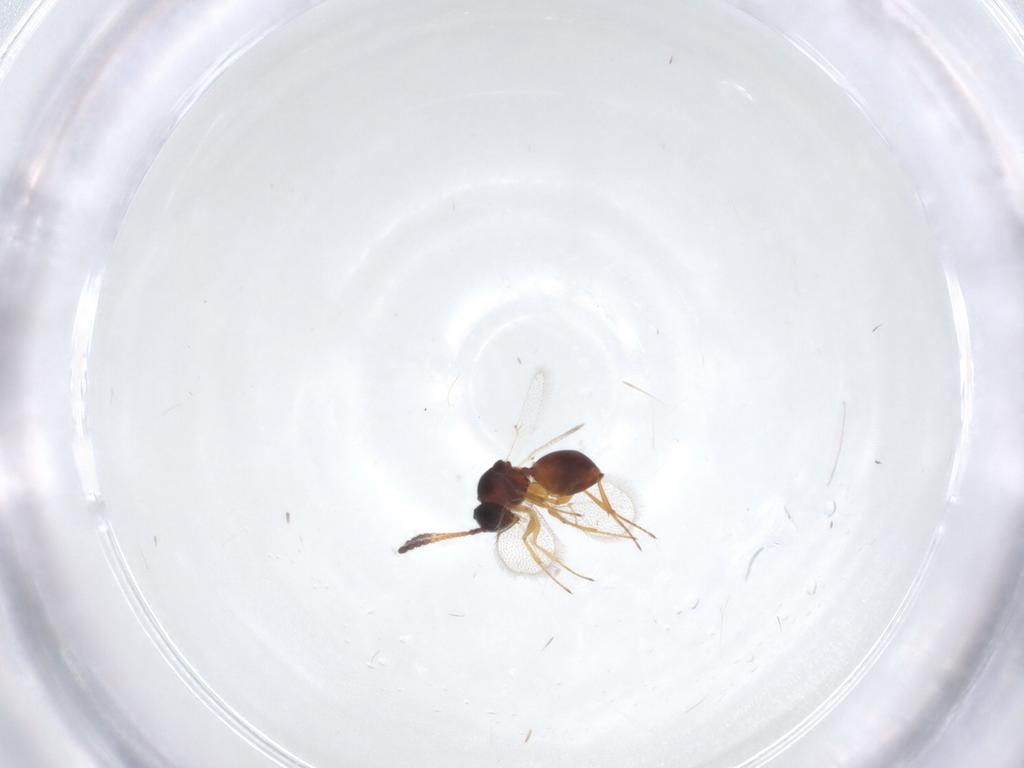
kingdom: Animalia
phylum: Arthropoda
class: Insecta
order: Hymenoptera
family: Figitidae
